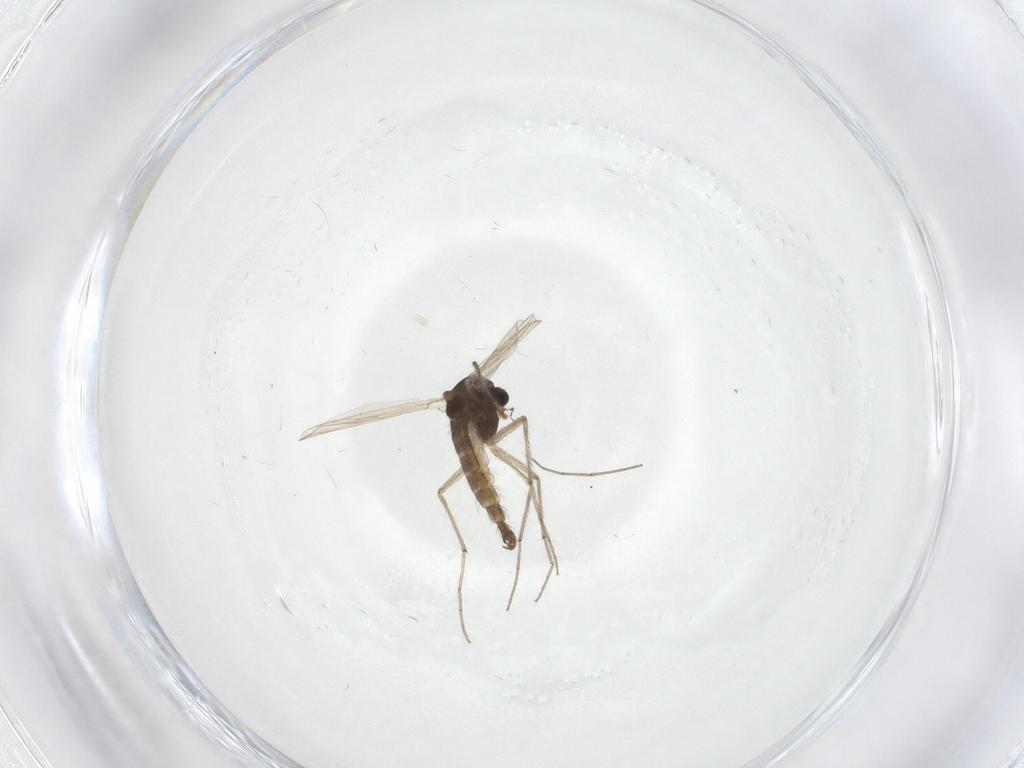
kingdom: Animalia
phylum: Arthropoda
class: Insecta
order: Diptera
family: Chironomidae
